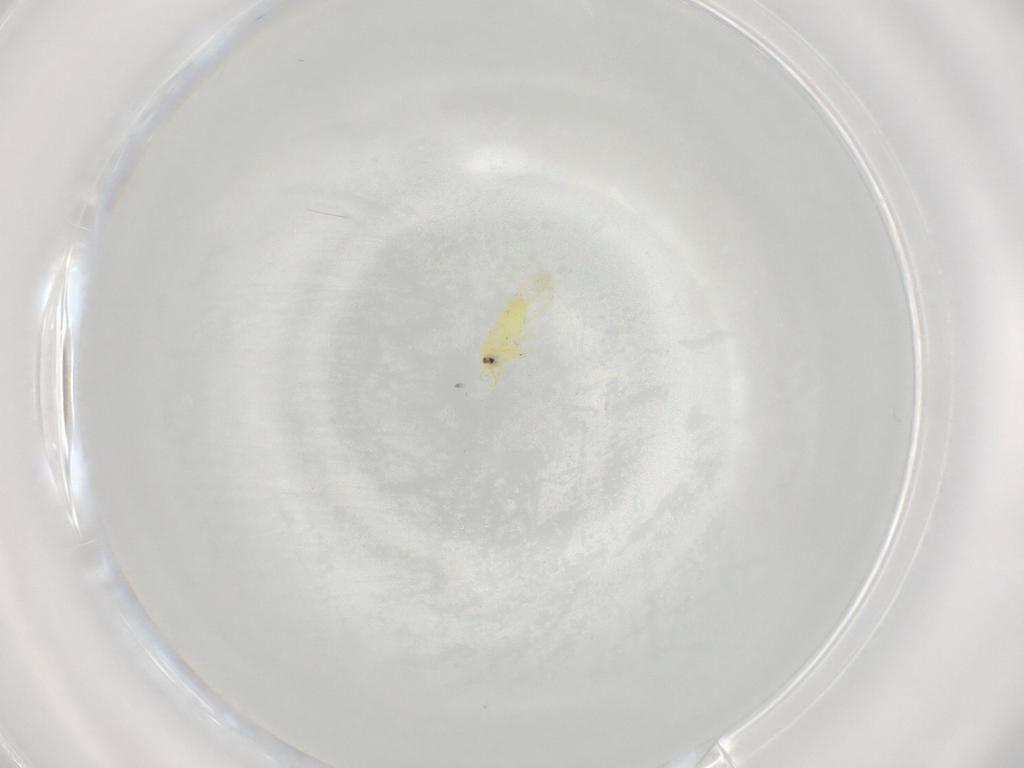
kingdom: Animalia
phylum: Arthropoda
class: Insecta
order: Hemiptera
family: Aleyrodidae
